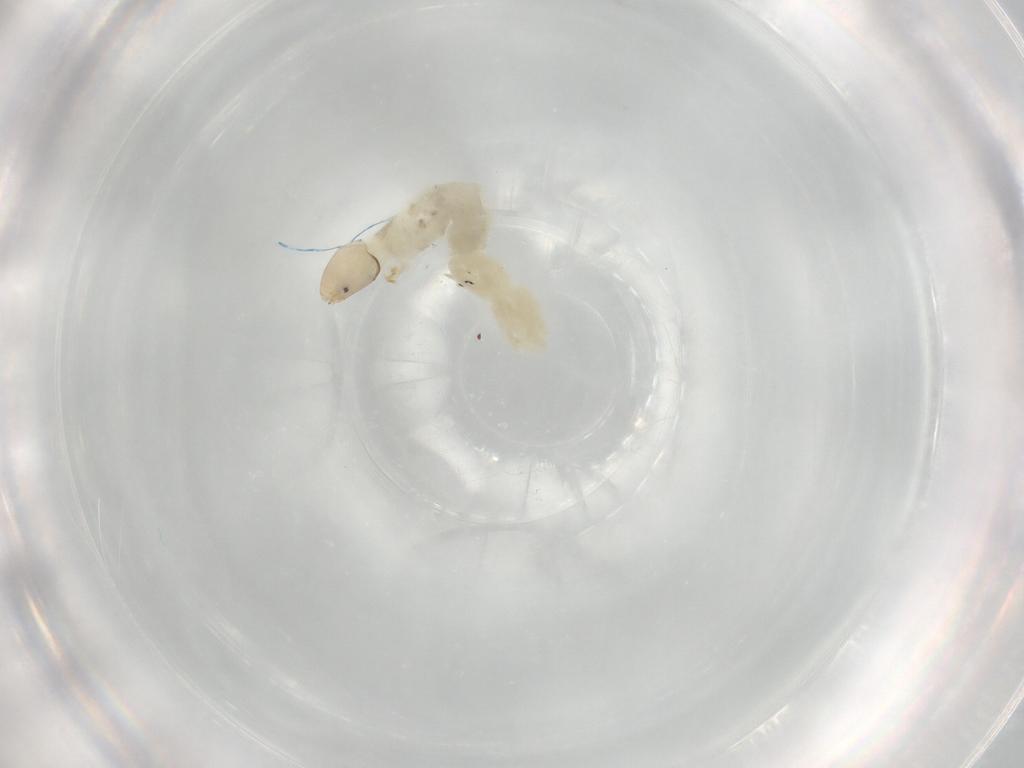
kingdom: Animalia
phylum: Arthropoda
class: Insecta
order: Diptera
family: Chironomidae
